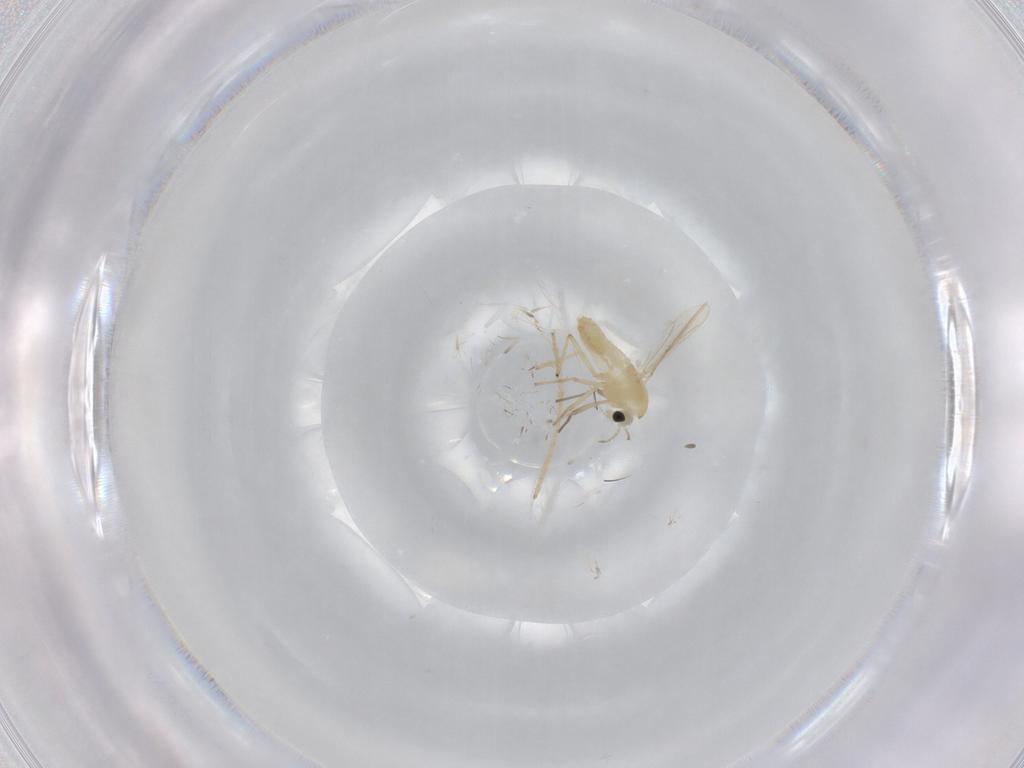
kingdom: Animalia
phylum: Arthropoda
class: Insecta
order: Diptera
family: Chironomidae
